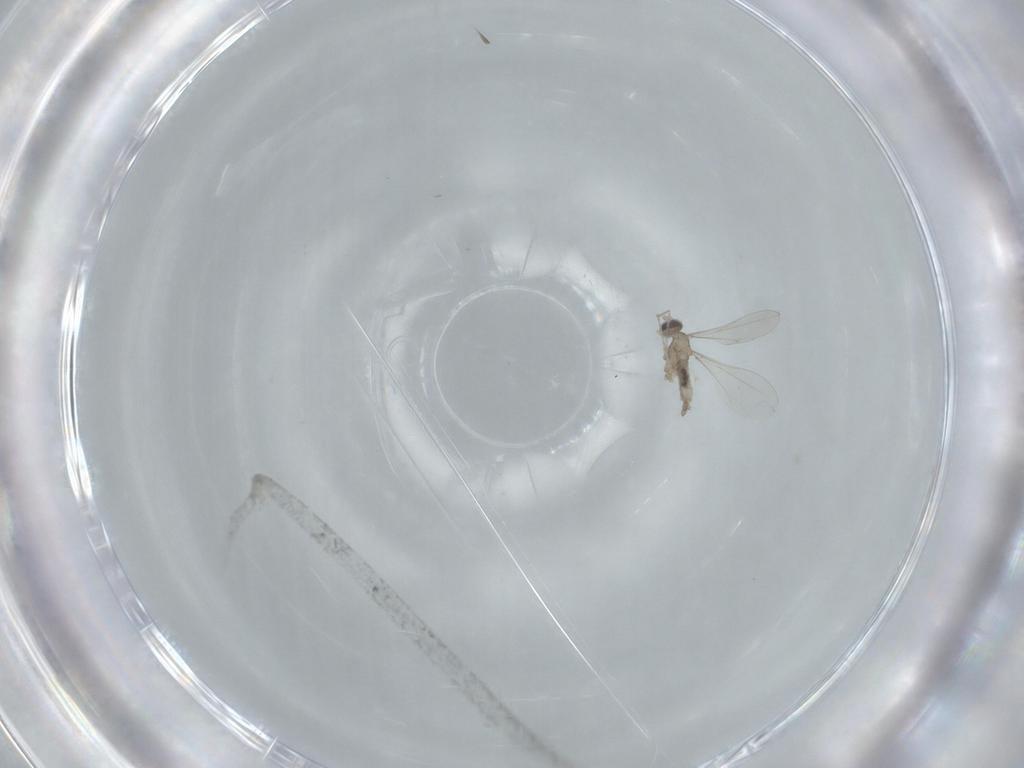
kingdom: Animalia
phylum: Arthropoda
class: Insecta
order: Diptera
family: Cecidomyiidae
